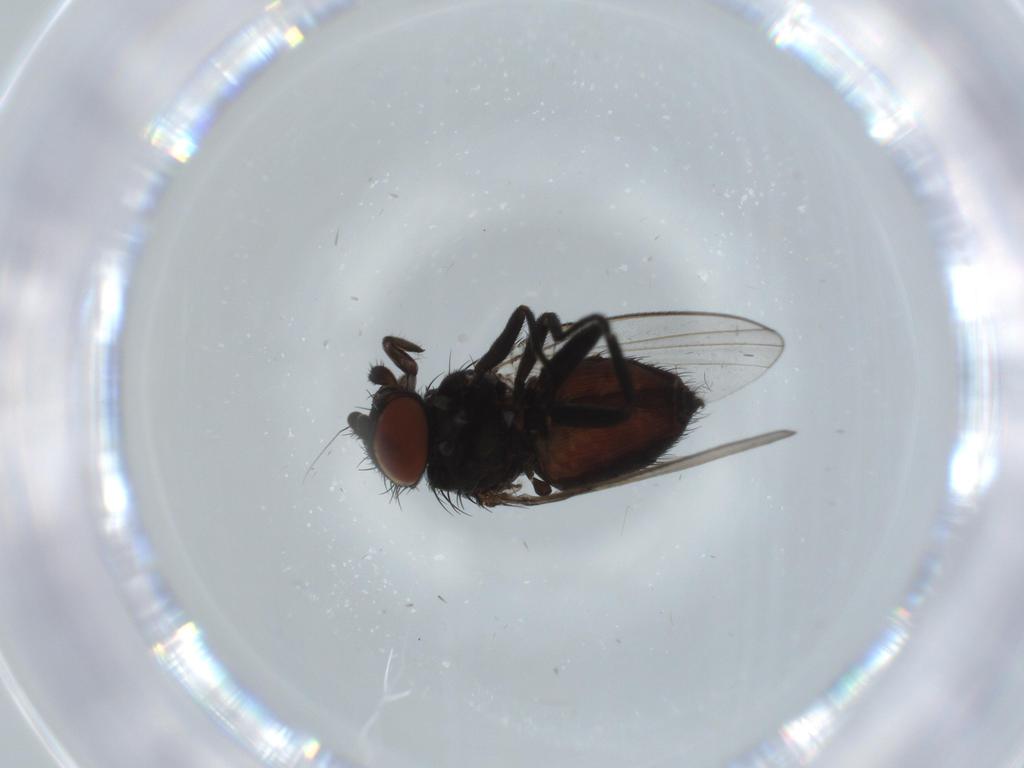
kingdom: Animalia
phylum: Arthropoda
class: Insecta
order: Diptera
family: Milichiidae
